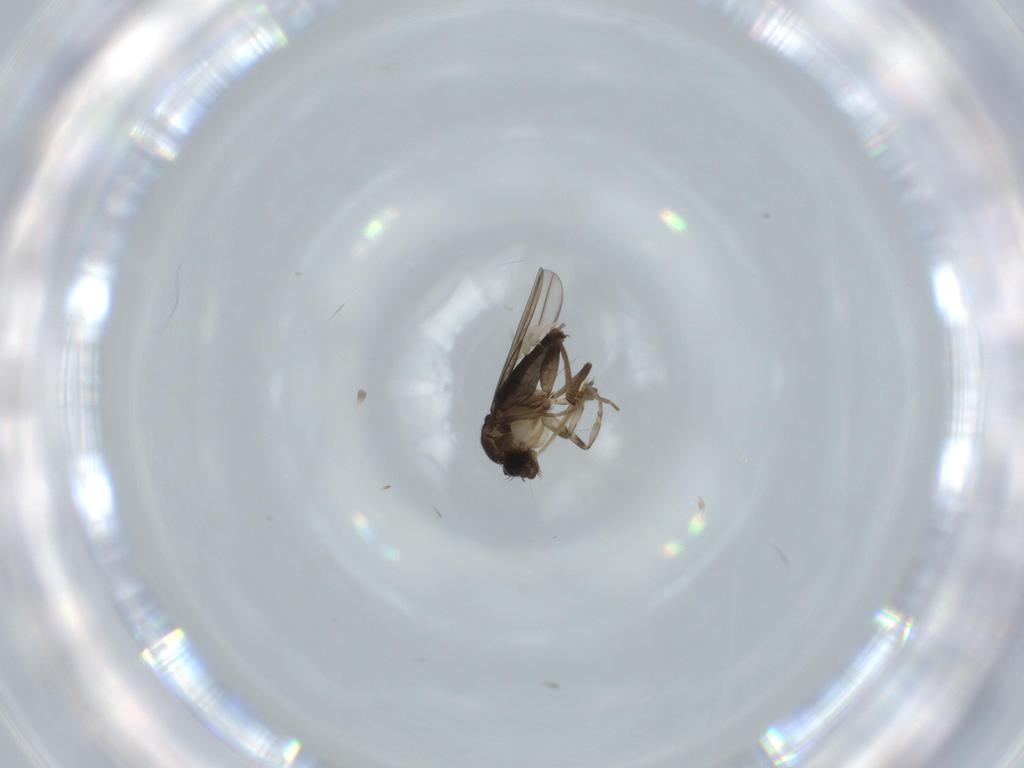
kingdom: Animalia
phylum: Arthropoda
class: Insecta
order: Diptera
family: Phoridae
